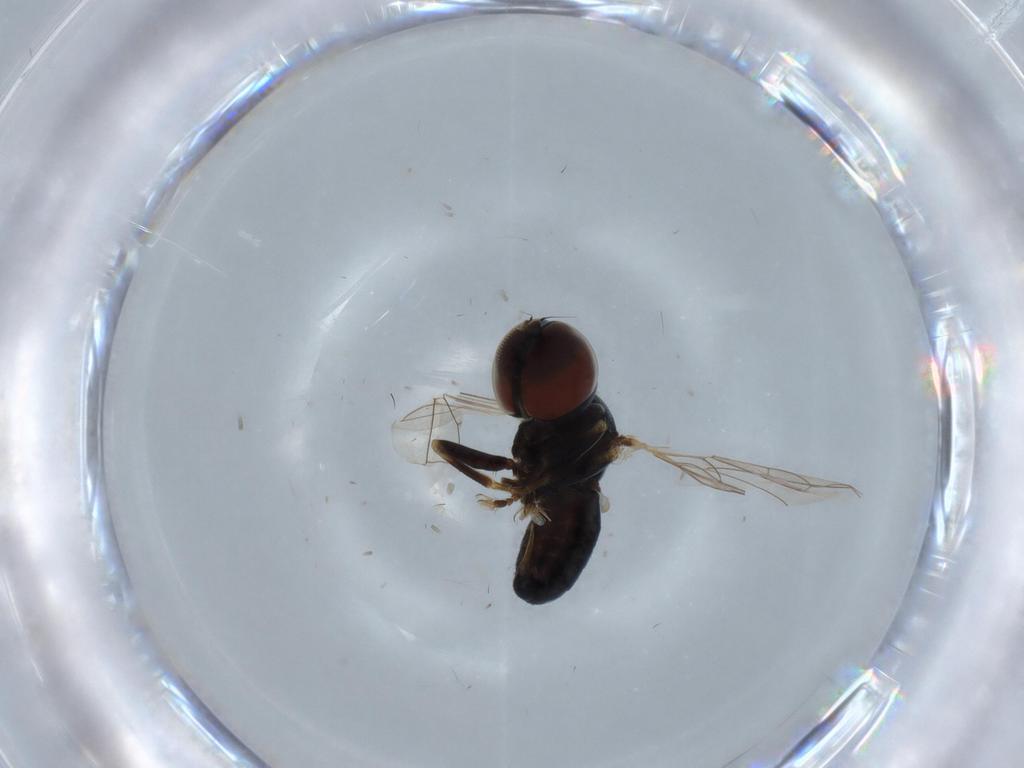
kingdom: Animalia
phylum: Arthropoda
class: Insecta
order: Diptera
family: Pipunculidae
